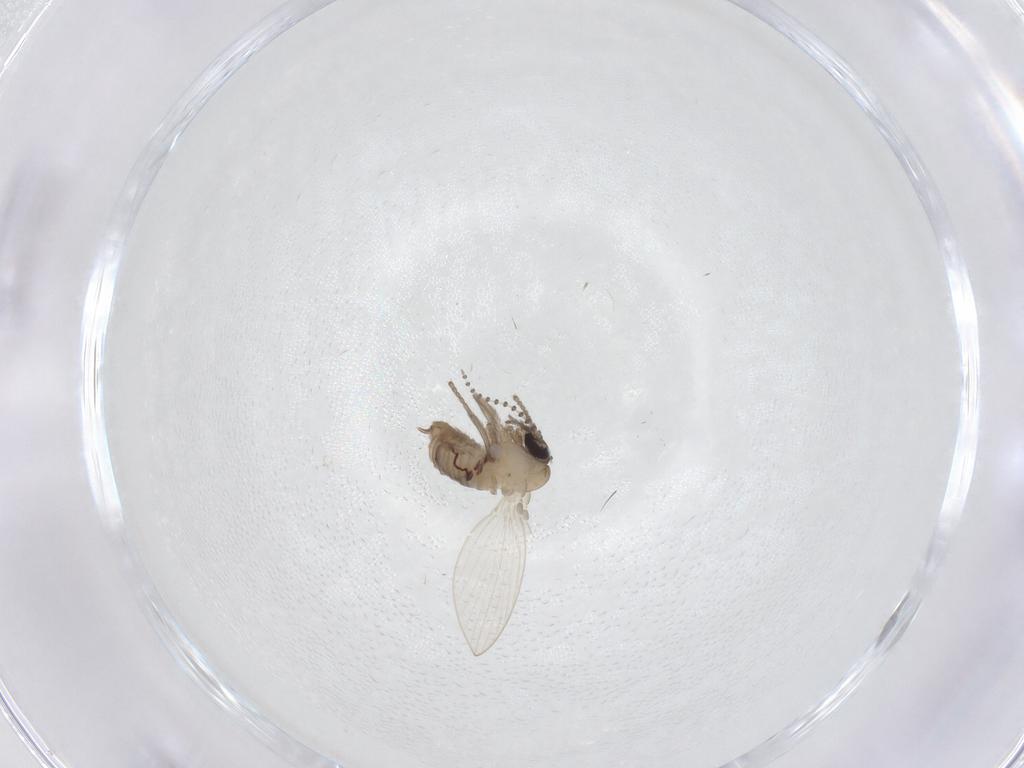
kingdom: Animalia
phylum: Arthropoda
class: Insecta
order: Diptera
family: Psychodidae
